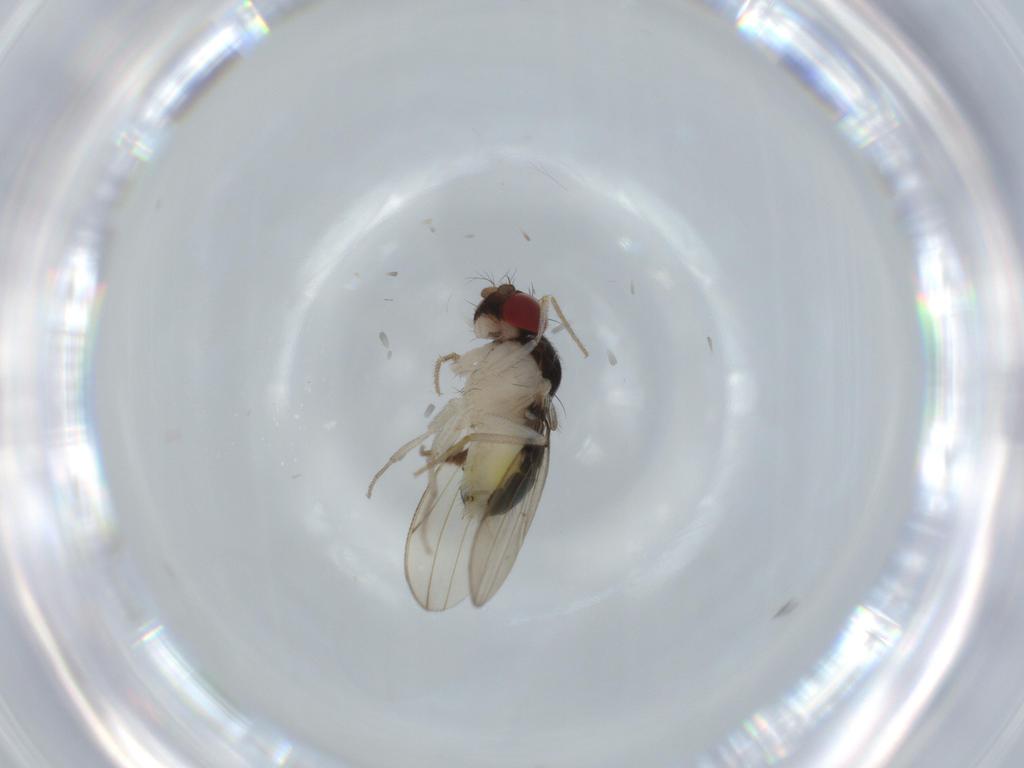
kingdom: Animalia
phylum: Arthropoda
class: Insecta
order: Diptera
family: Drosophilidae
